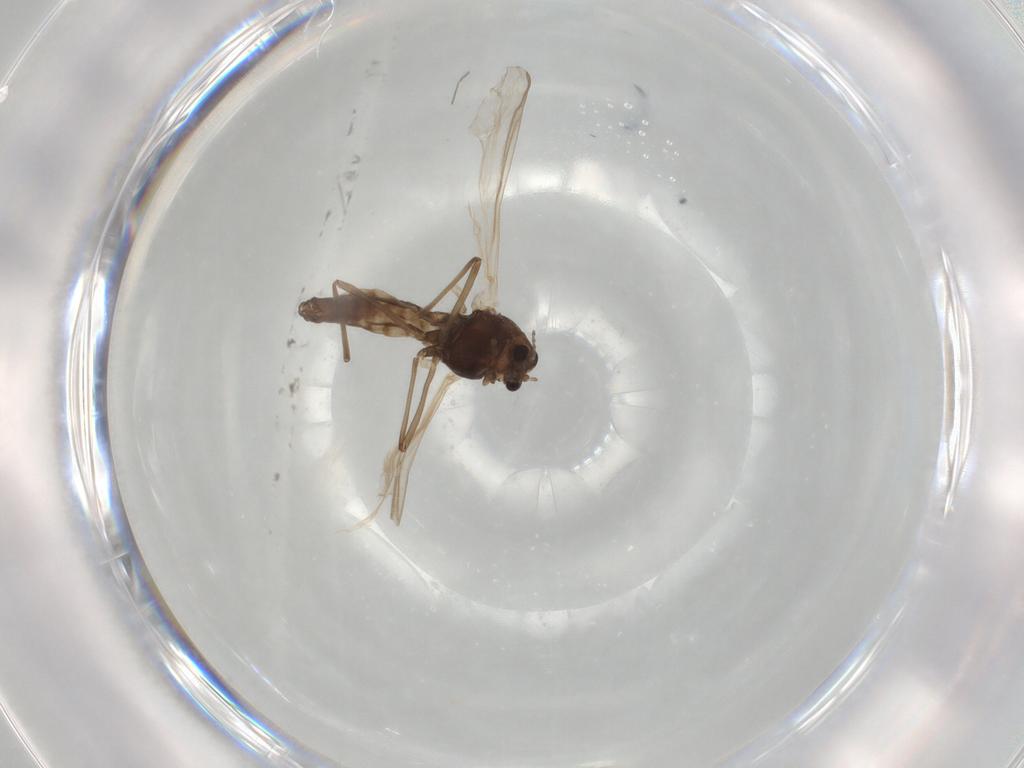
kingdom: Animalia
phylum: Arthropoda
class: Insecta
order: Diptera
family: Chironomidae
